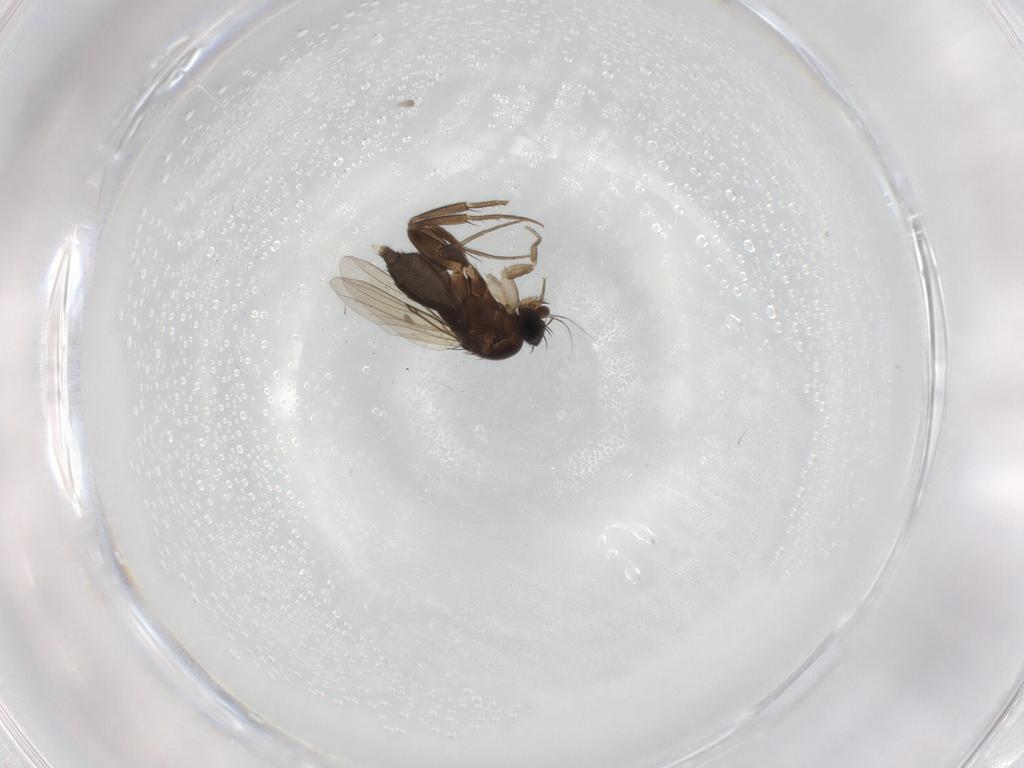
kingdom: Animalia
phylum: Arthropoda
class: Insecta
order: Diptera
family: Phoridae
